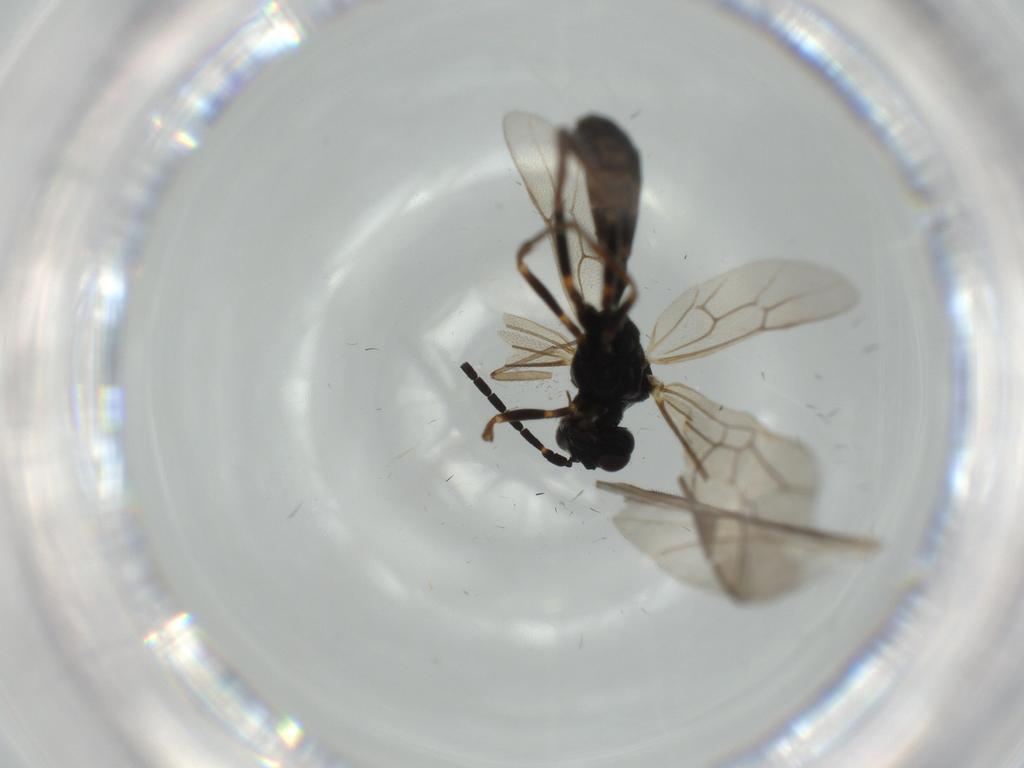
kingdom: Animalia
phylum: Arthropoda
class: Insecta
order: Hymenoptera
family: Ichneumonidae
